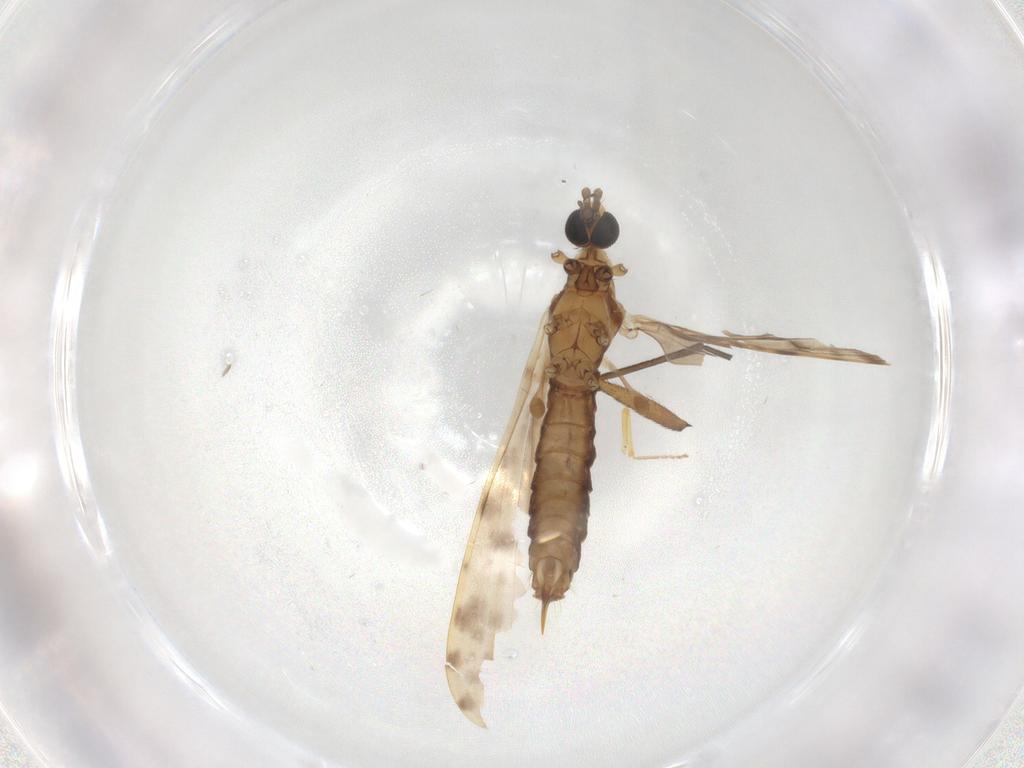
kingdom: Animalia
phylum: Arthropoda
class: Insecta
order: Diptera
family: Limoniidae
